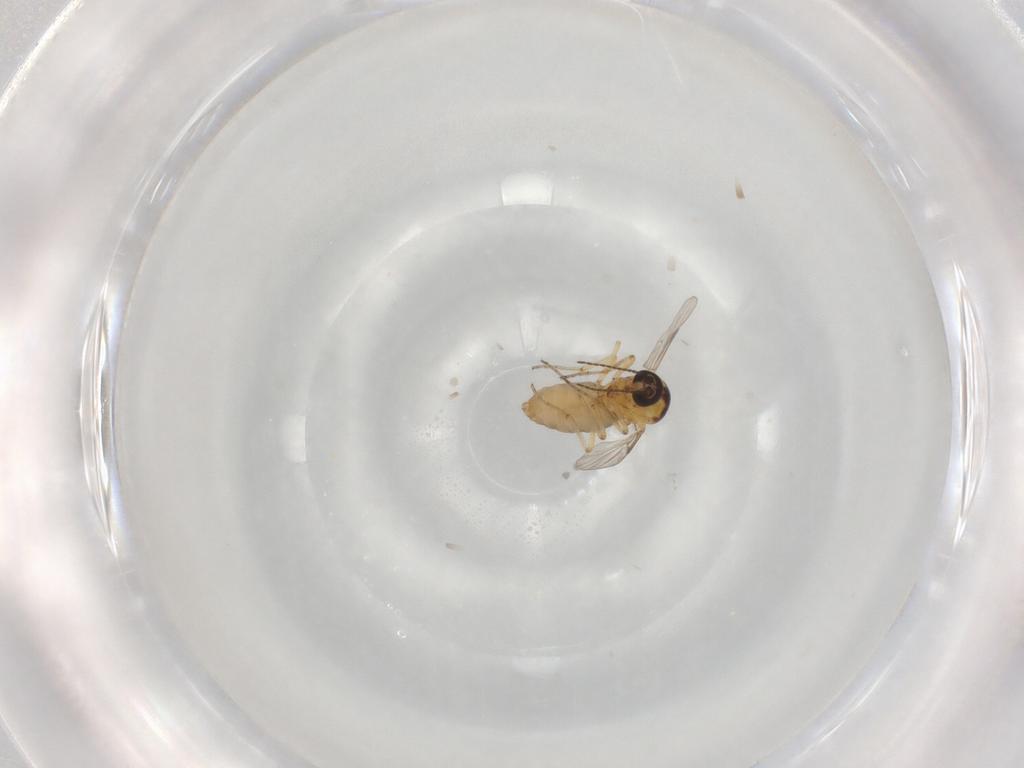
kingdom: Animalia
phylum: Arthropoda
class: Insecta
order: Diptera
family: Ceratopogonidae
